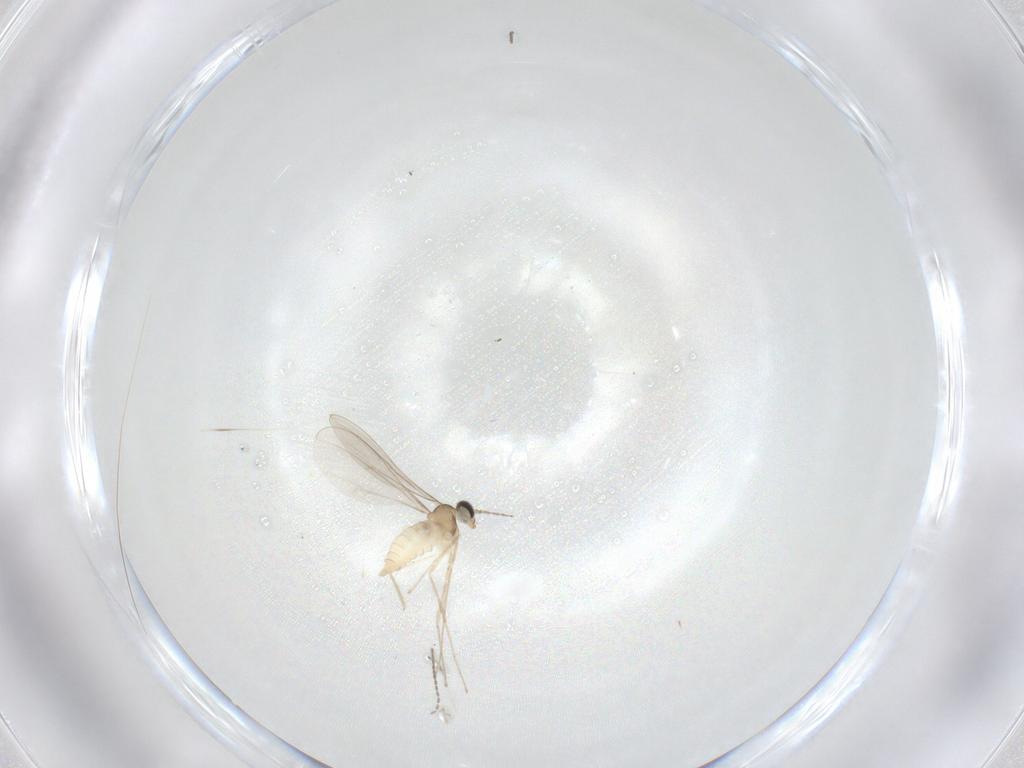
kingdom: Animalia
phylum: Arthropoda
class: Insecta
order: Diptera
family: Cecidomyiidae
